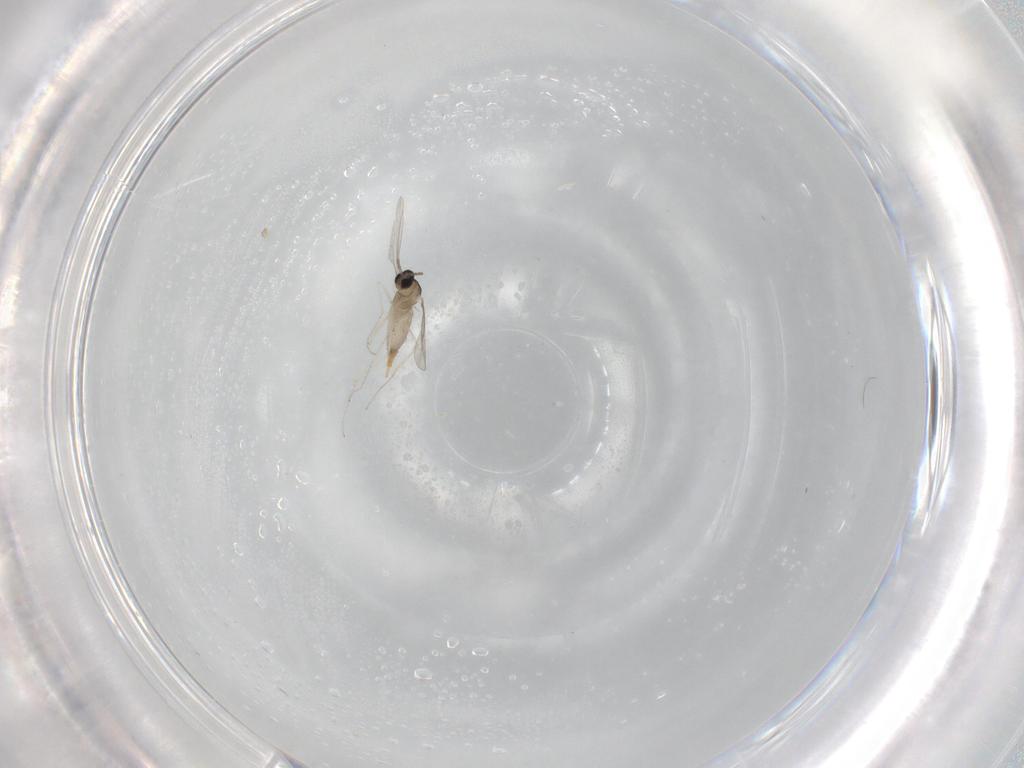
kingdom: Animalia
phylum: Arthropoda
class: Insecta
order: Diptera
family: Cecidomyiidae
